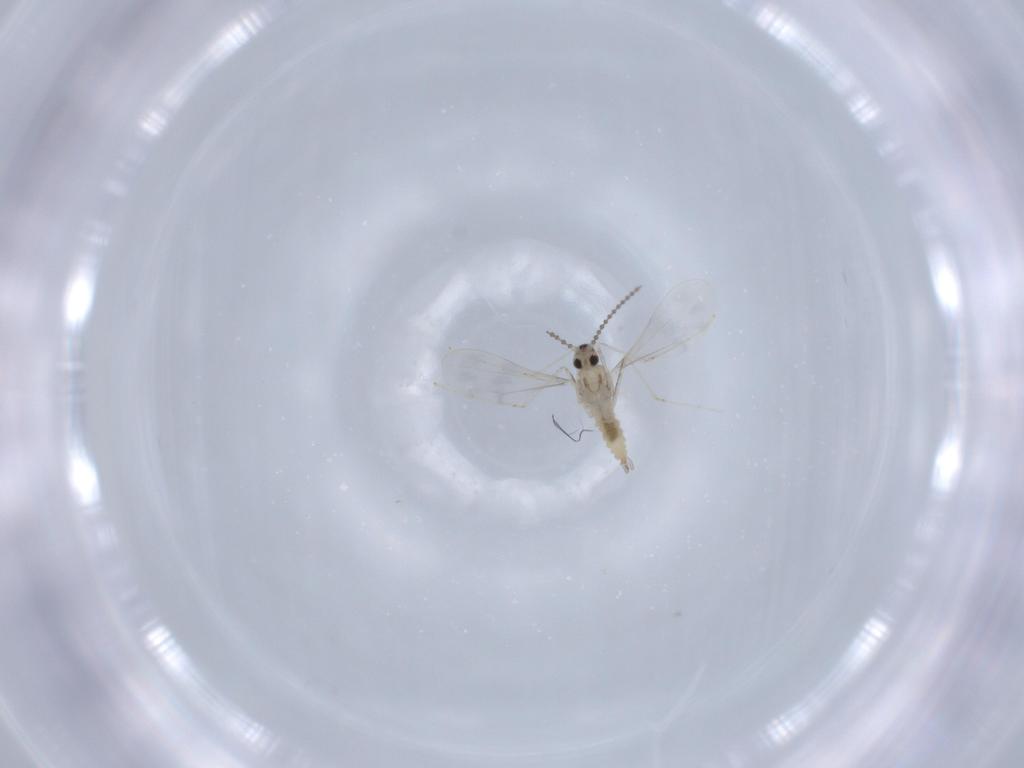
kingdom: Animalia
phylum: Arthropoda
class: Insecta
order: Diptera
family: Cecidomyiidae
